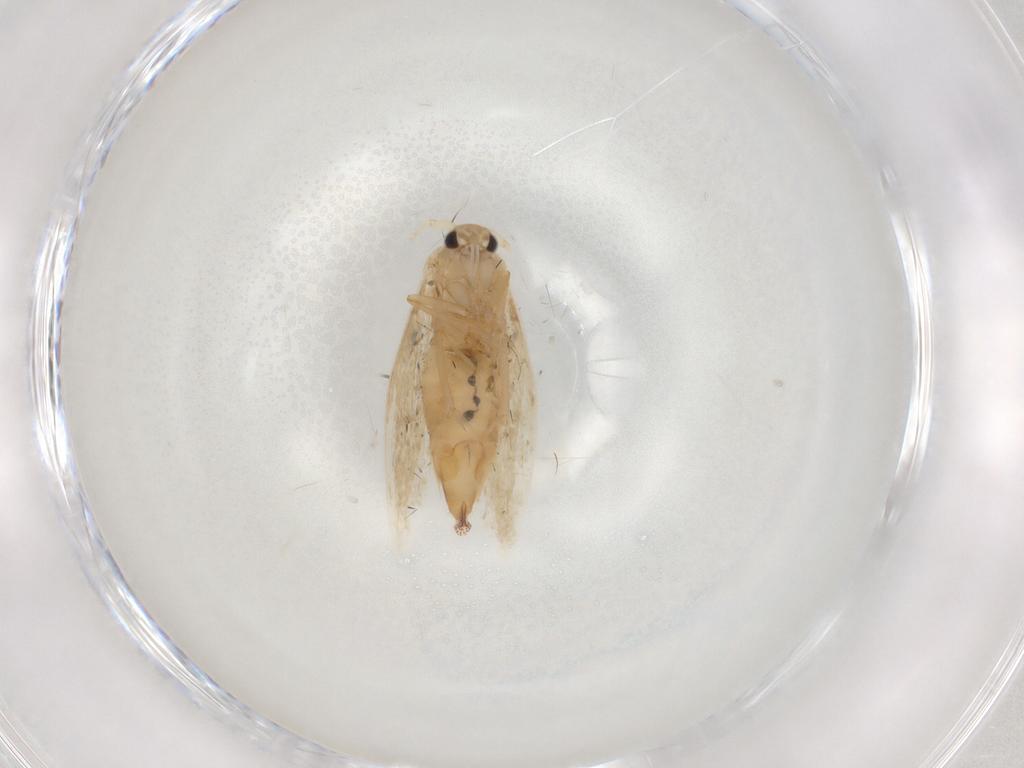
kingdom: Animalia
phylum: Arthropoda
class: Insecta
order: Lepidoptera
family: Bucculatricidae
